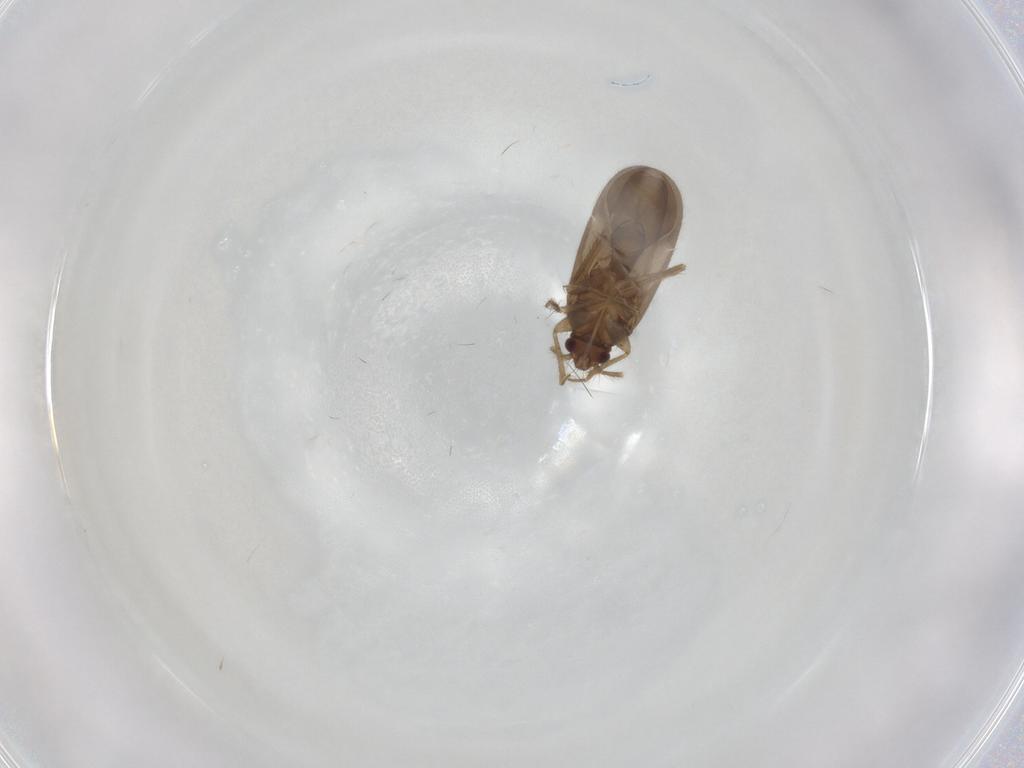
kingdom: Animalia
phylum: Arthropoda
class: Insecta
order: Hemiptera
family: Ceratocombidae
